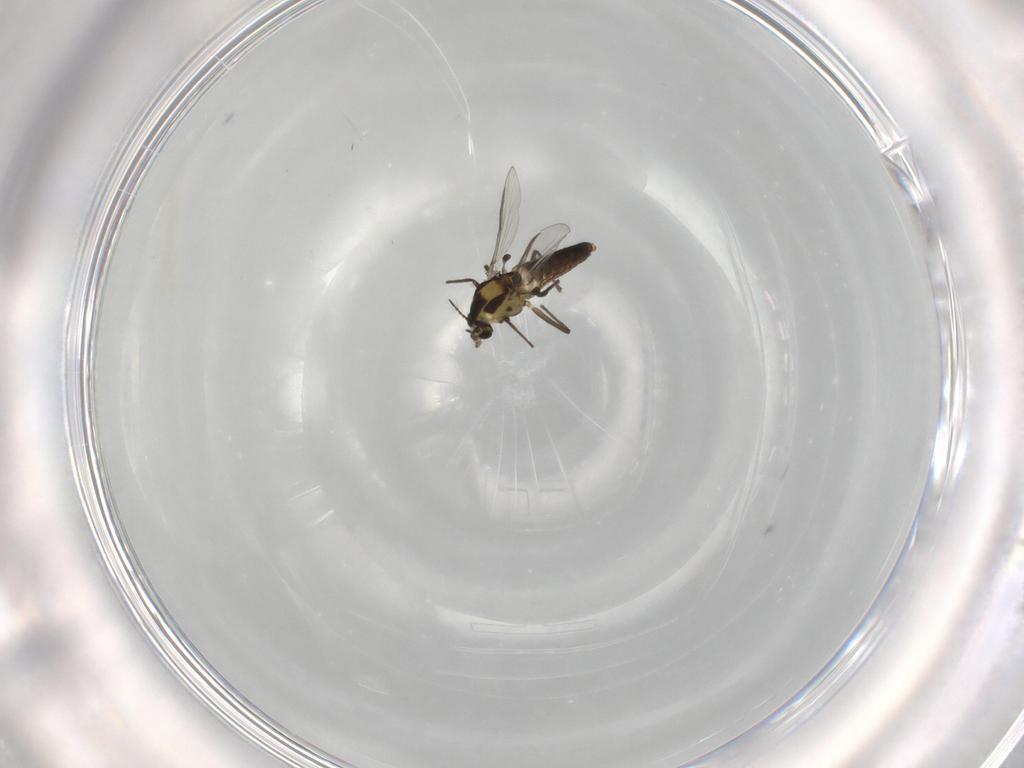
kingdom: Animalia
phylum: Arthropoda
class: Insecta
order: Diptera
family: Chironomidae
